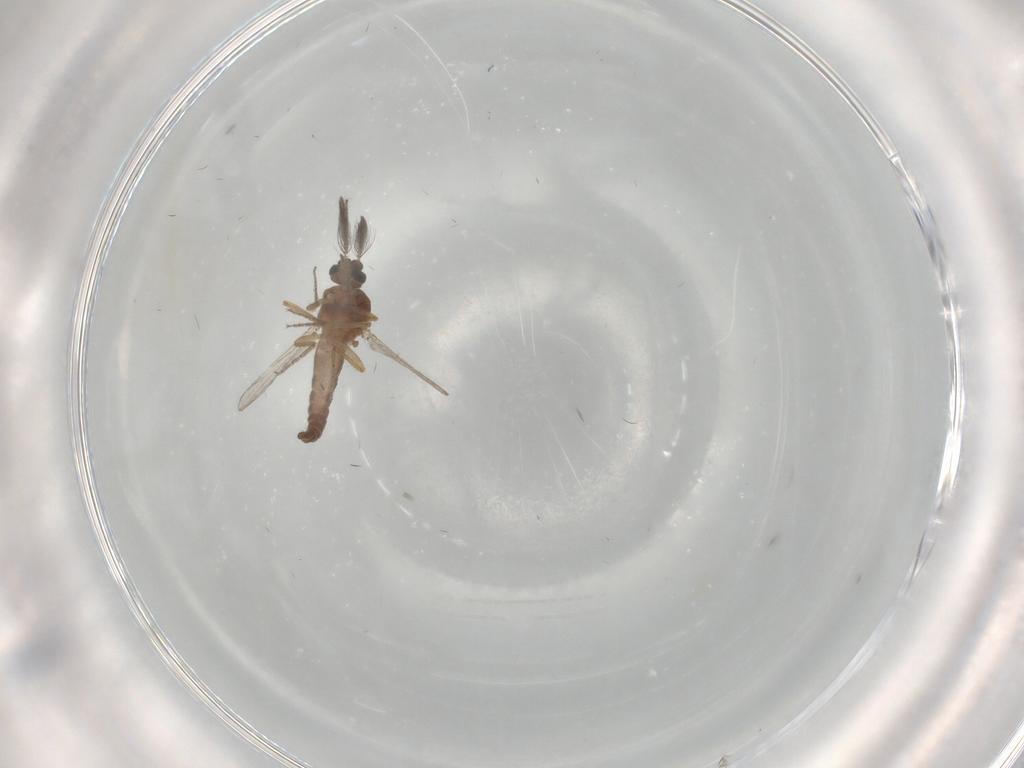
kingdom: Animalia
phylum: Arthropoda
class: Insecta
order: Diptera
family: Ceratopogonidae
